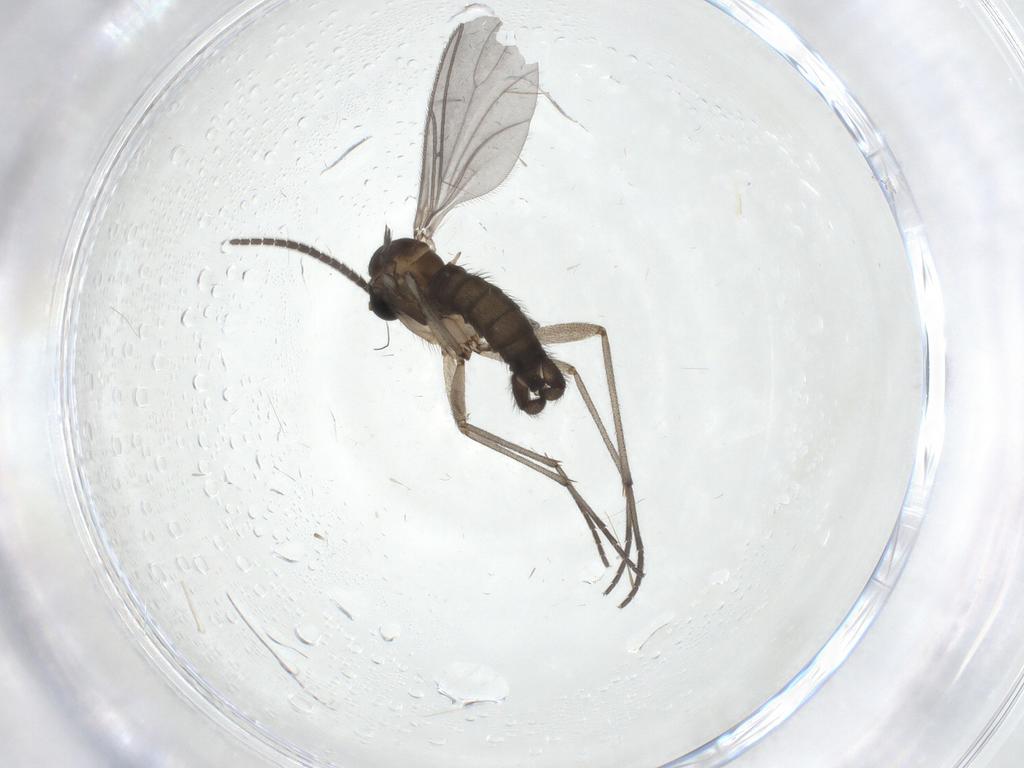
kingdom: Animalia
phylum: Arthropoda
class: Insecta
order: Diptera
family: Sciaridae
